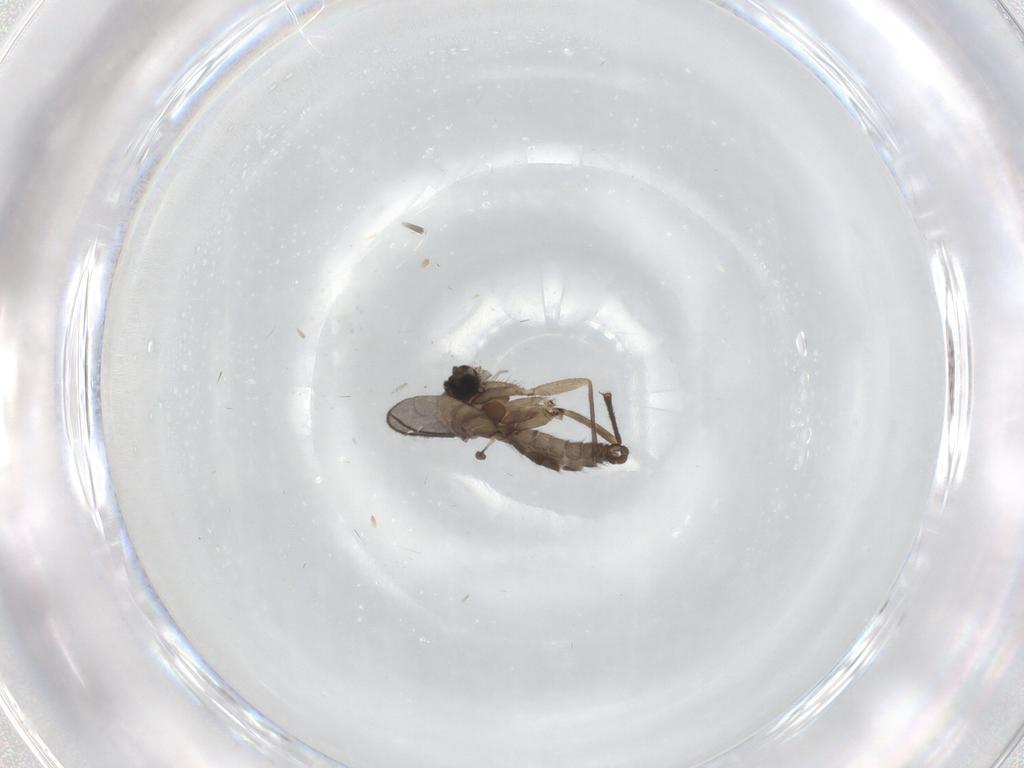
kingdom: Animalia
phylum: Arthropoda
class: Insecta
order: Diptera
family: Sciaridae
